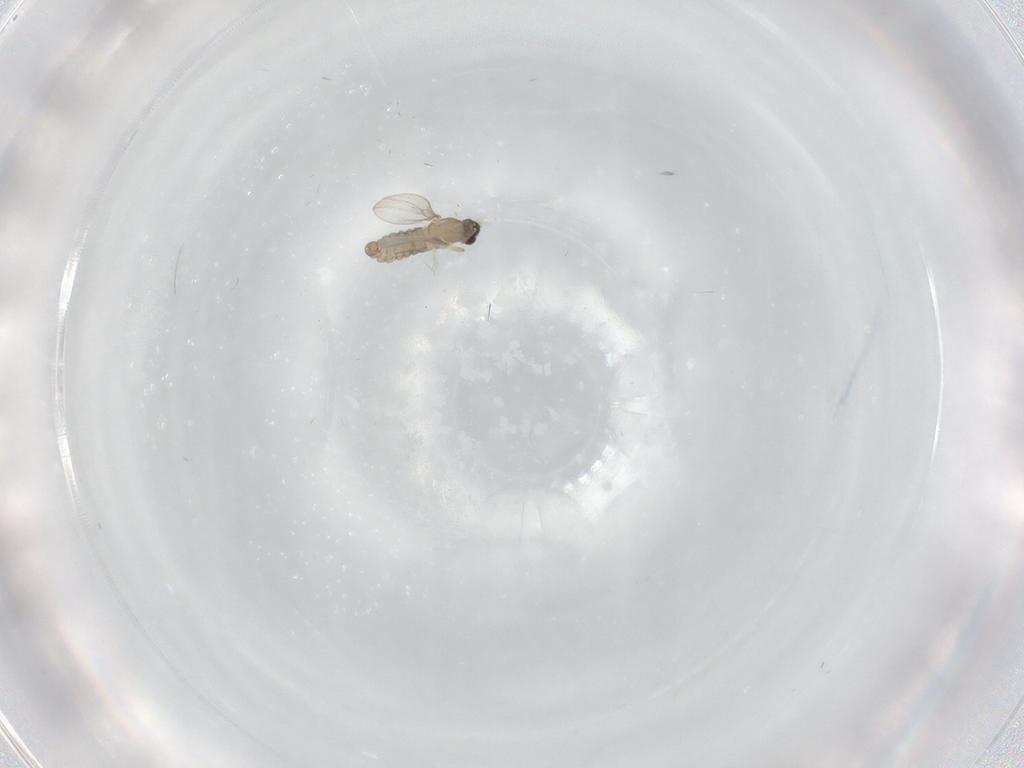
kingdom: Animalia
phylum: Arthropoda
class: Insecta
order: Diptera
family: Cecidomyiidae
